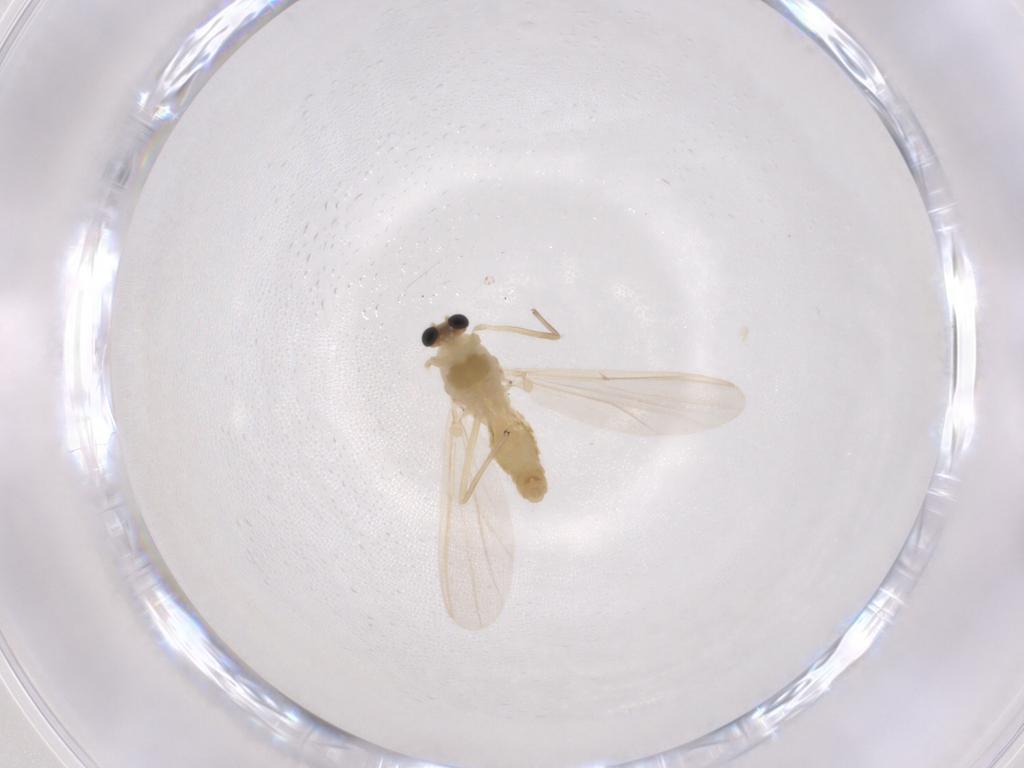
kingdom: Animalia
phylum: Arthropoda
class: Insecta
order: Diptera
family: Chironomidae
